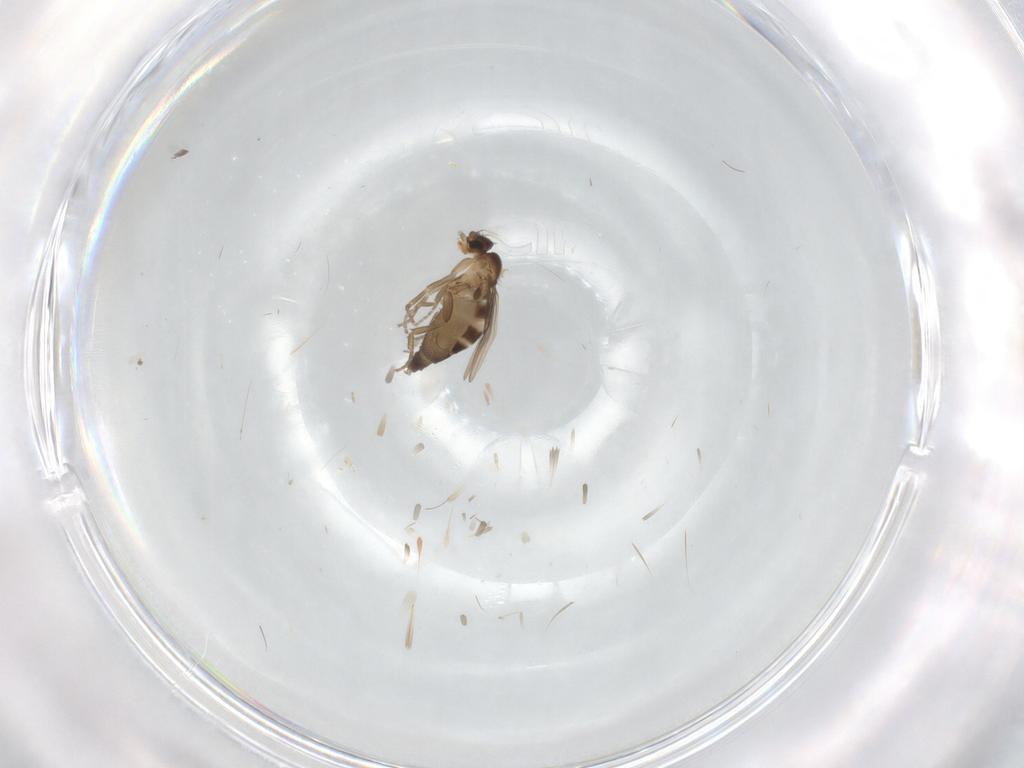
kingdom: Animalia
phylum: Arthropoda
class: Insecta
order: Diptera
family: Phoridae
